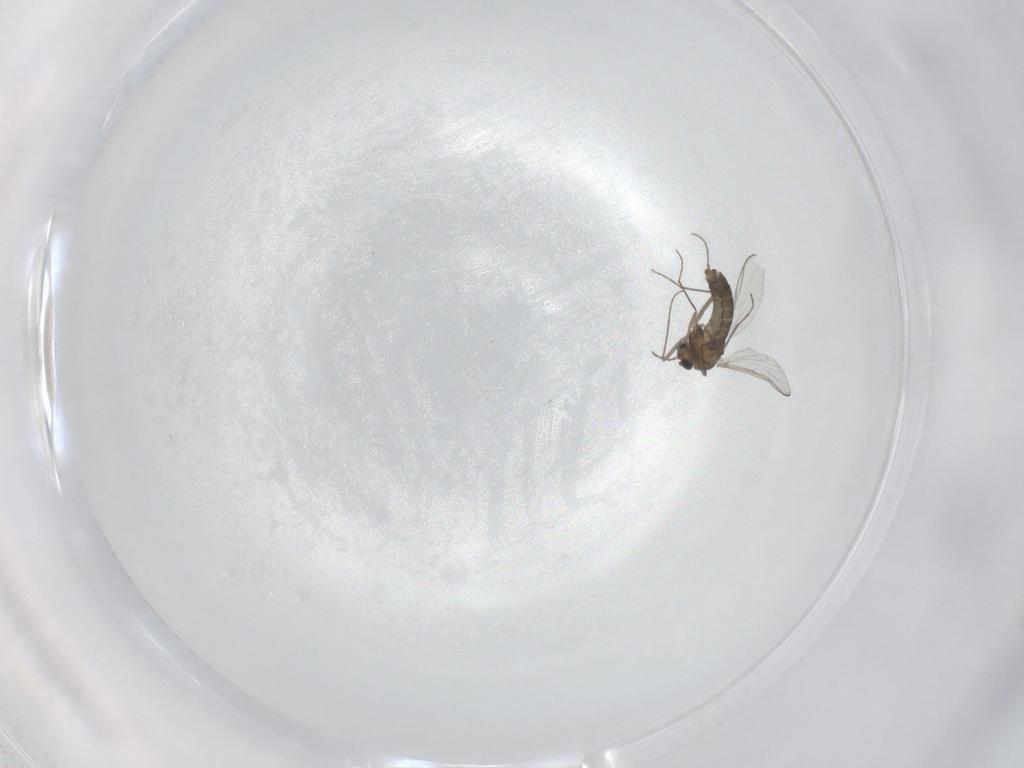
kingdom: Animalia
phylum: Arthropoda
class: Insecta
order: Diptera
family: Chironomidae
